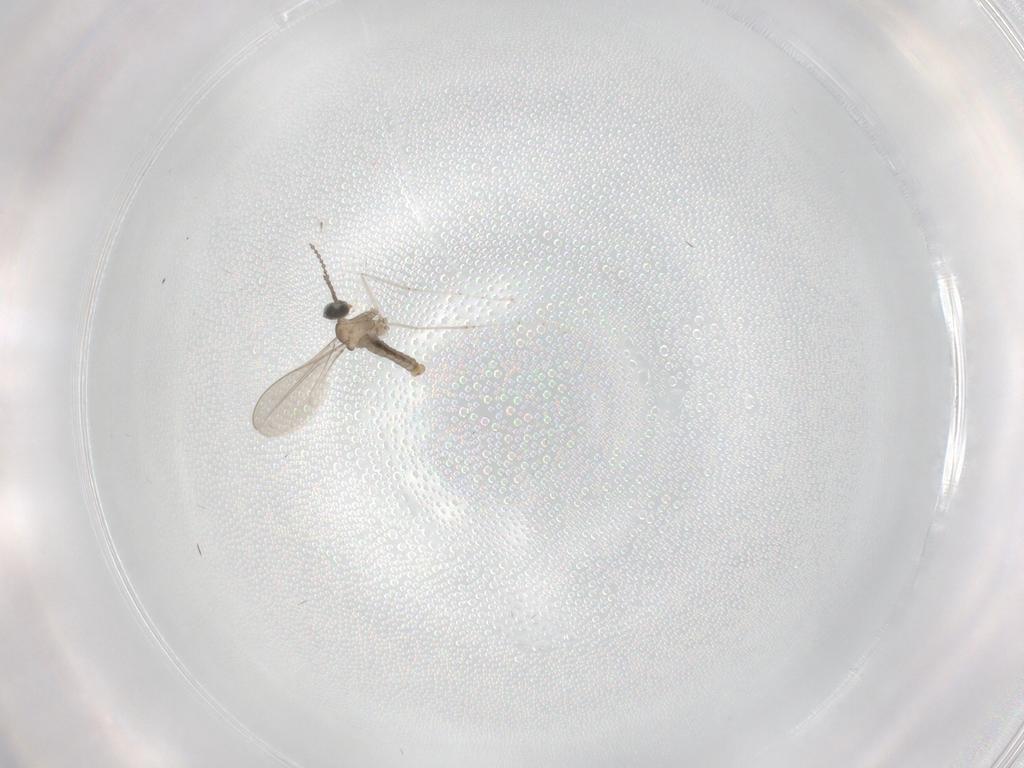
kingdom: Animalia
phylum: Arthropoda
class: Insecta
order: Diptera
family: Cecidomyiidae
